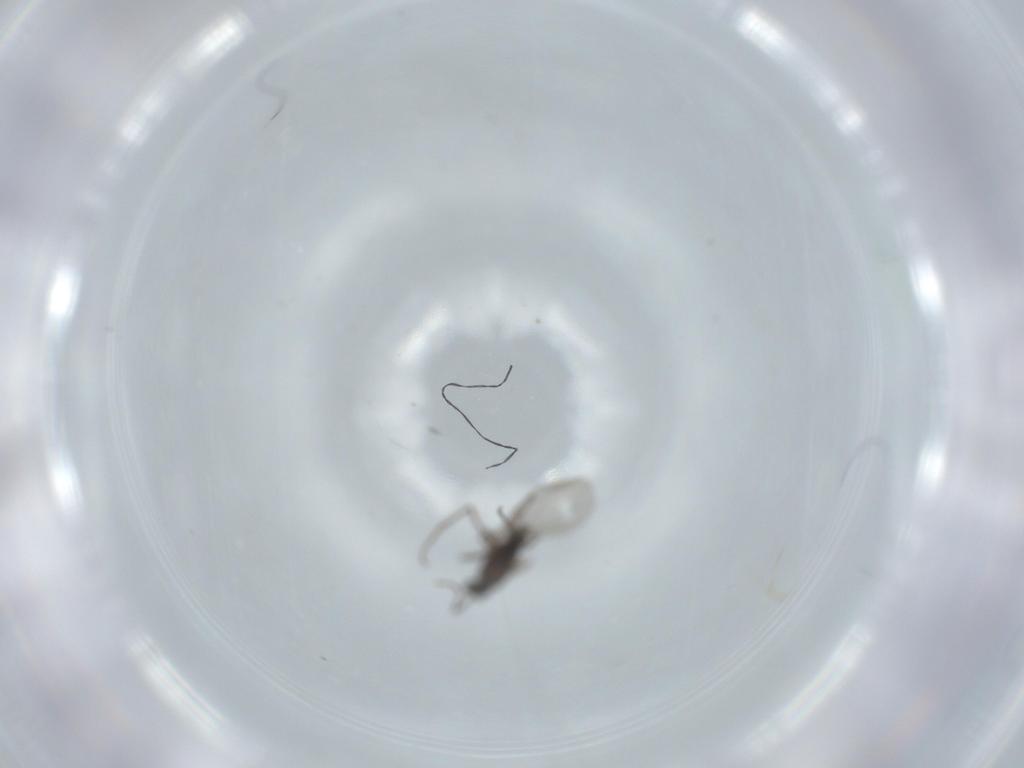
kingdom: Animalia
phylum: Arthropoda
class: Insecta
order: Diptera
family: Cecidomyiidae
